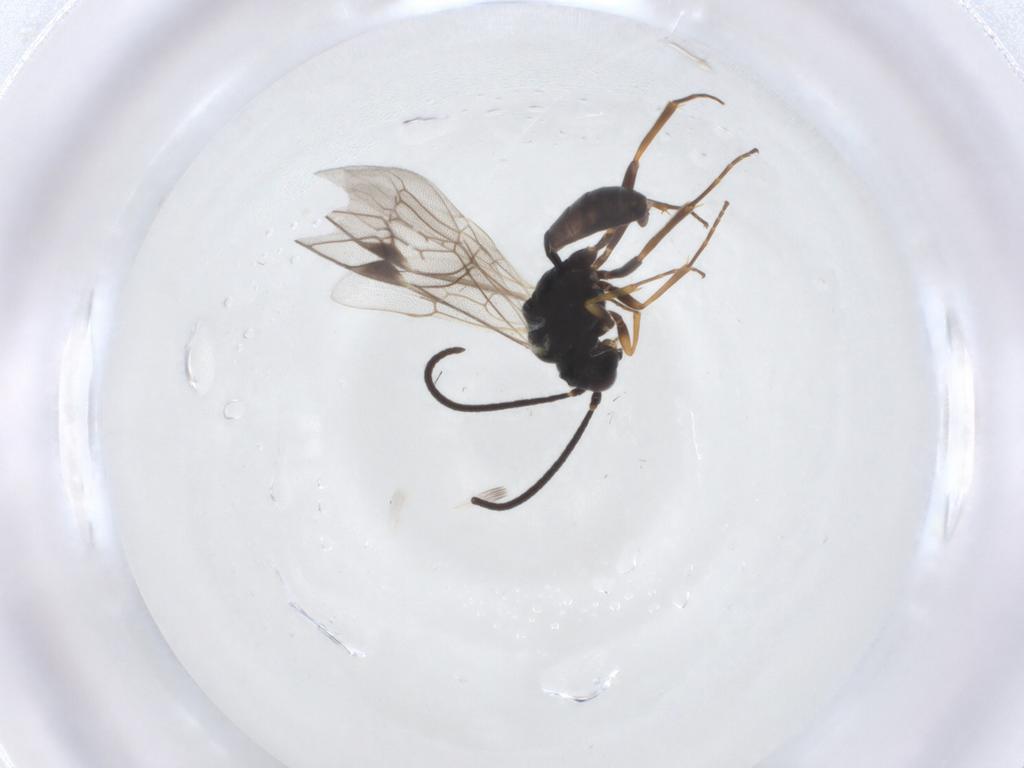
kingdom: Animalia
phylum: Arthropoda
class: Insecta
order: Hymenoptera
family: Ichneumonidae
